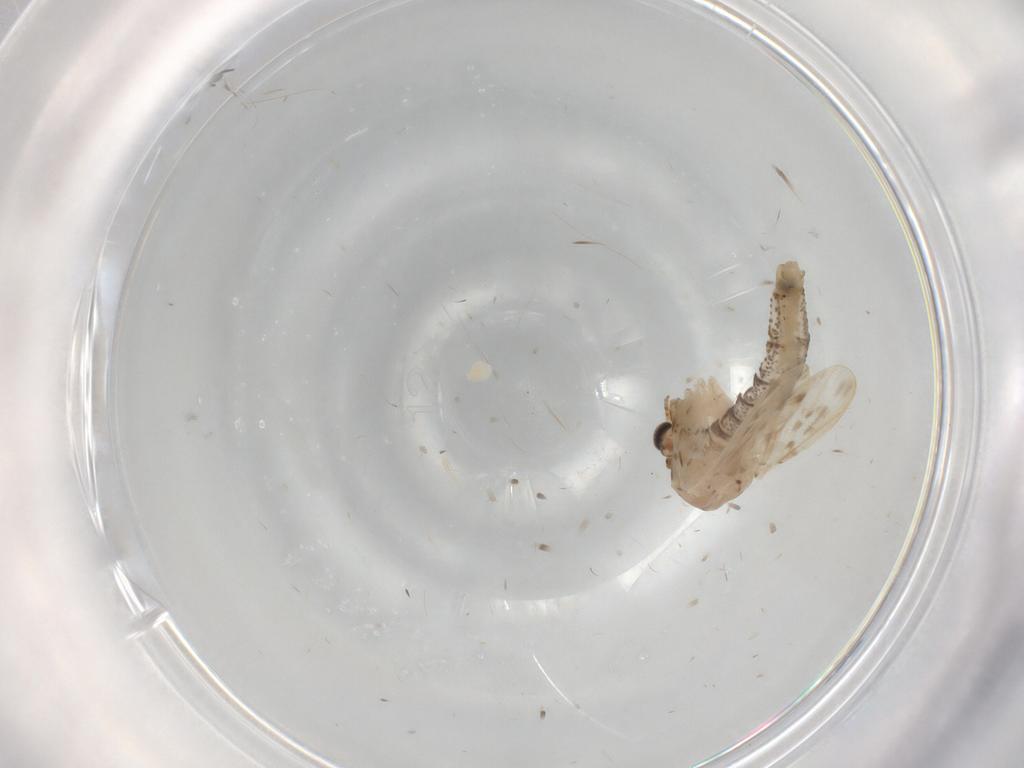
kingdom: Animalia
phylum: Arthropoda
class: Insecta
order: Diptera
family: Chaoboridae
